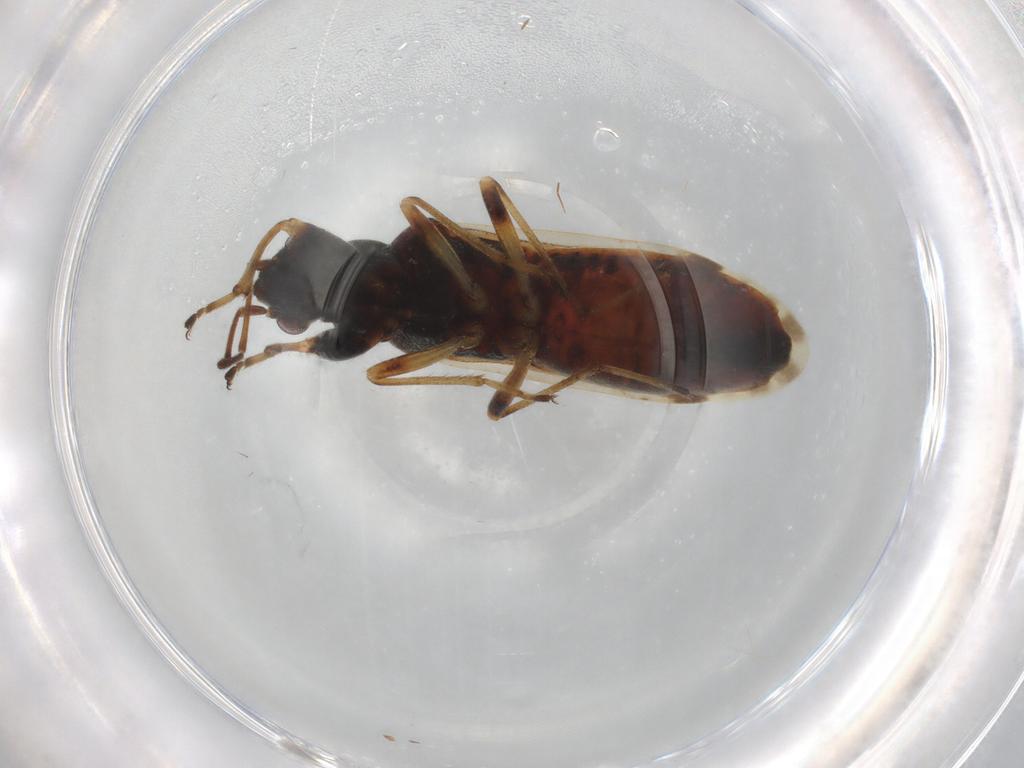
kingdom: Animalia
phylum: Arthropoda
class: Insecta
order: Hemiptera
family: Rhyparochromidae
